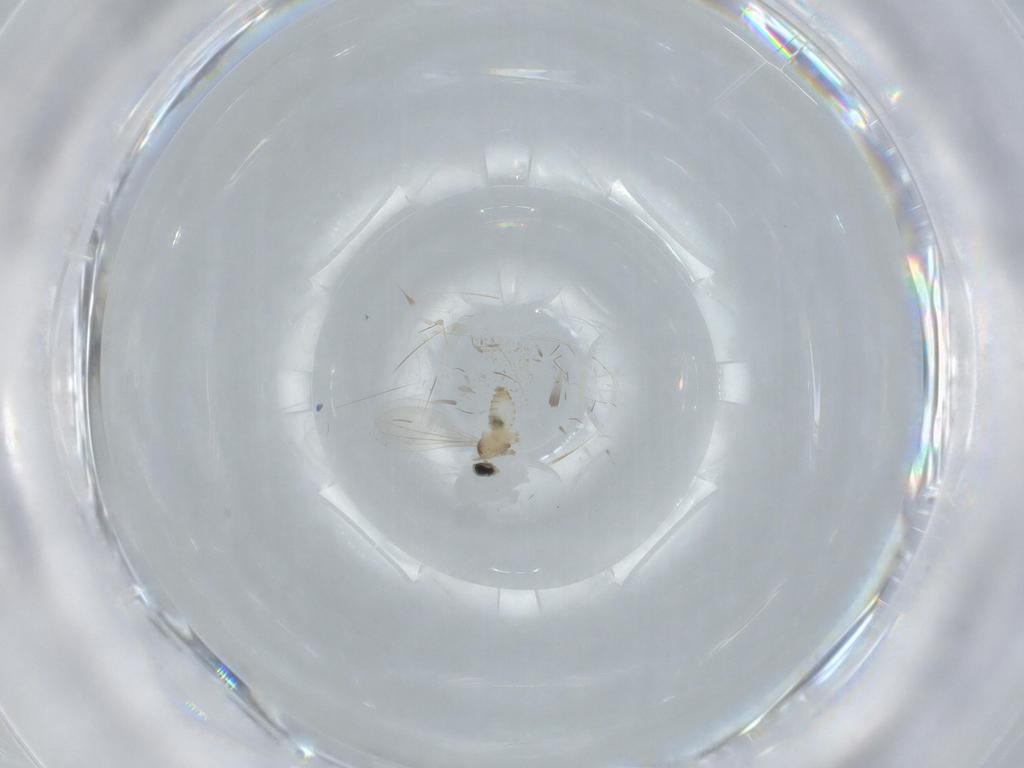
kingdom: Animalia
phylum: Arthropoda
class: Insecta
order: Diptera
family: Cecidomyiidae
